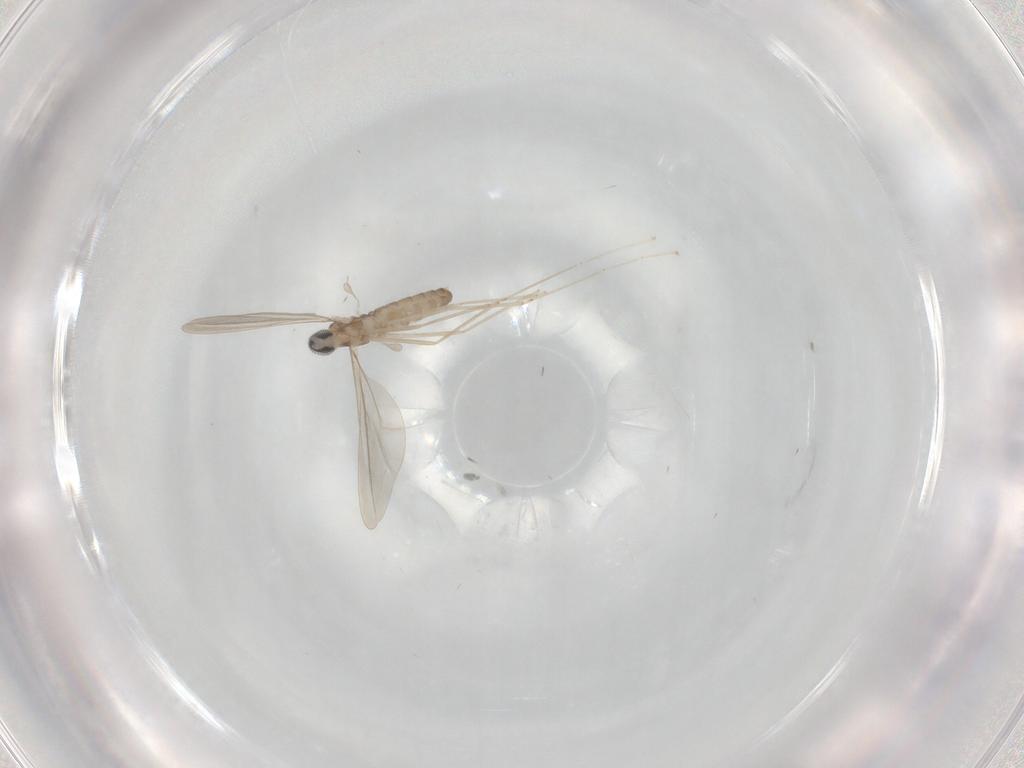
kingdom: Animalia
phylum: Arthropoda
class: Insecta
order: Diptera
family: Cecidomyiidae
